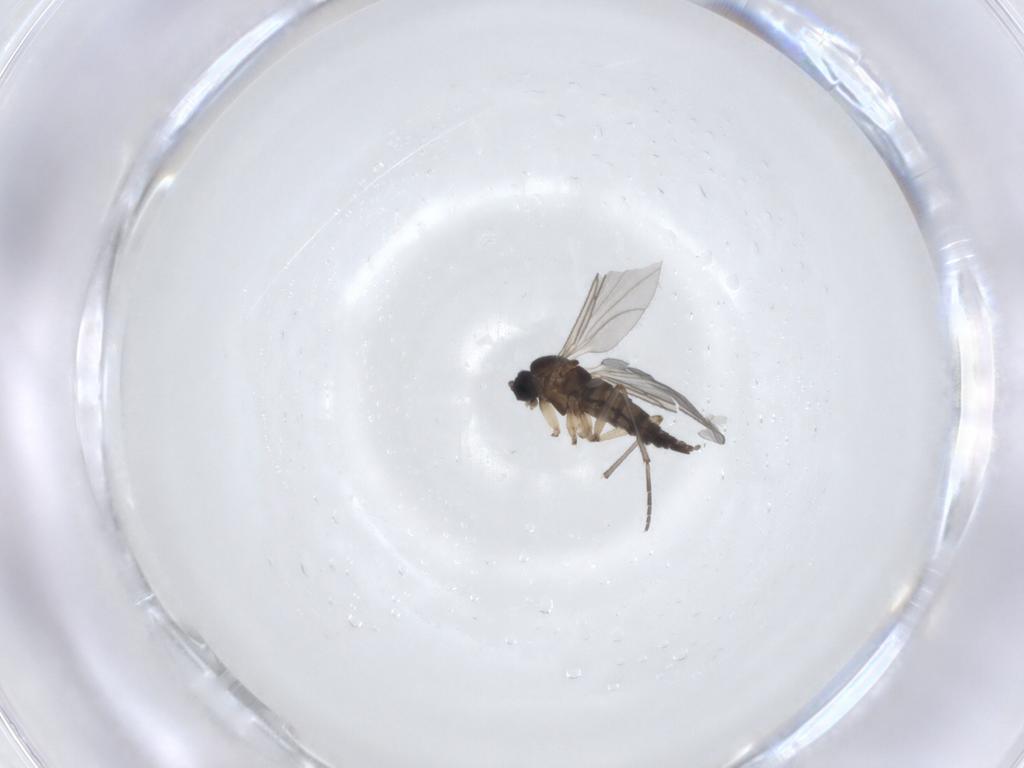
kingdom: Animalia
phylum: Arthropoda
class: Insecta
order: Diptera
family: Sciaridae
